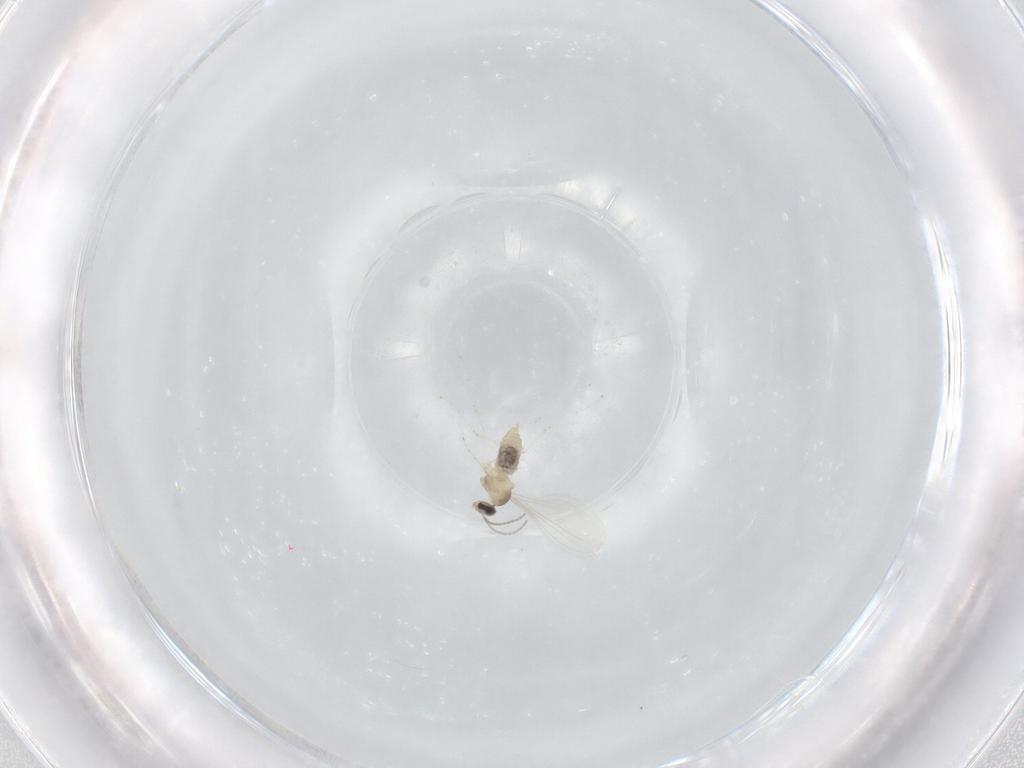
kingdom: Animalia
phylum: Arthropoda
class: Insecta
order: Diptera
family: Cecidomyiidae
